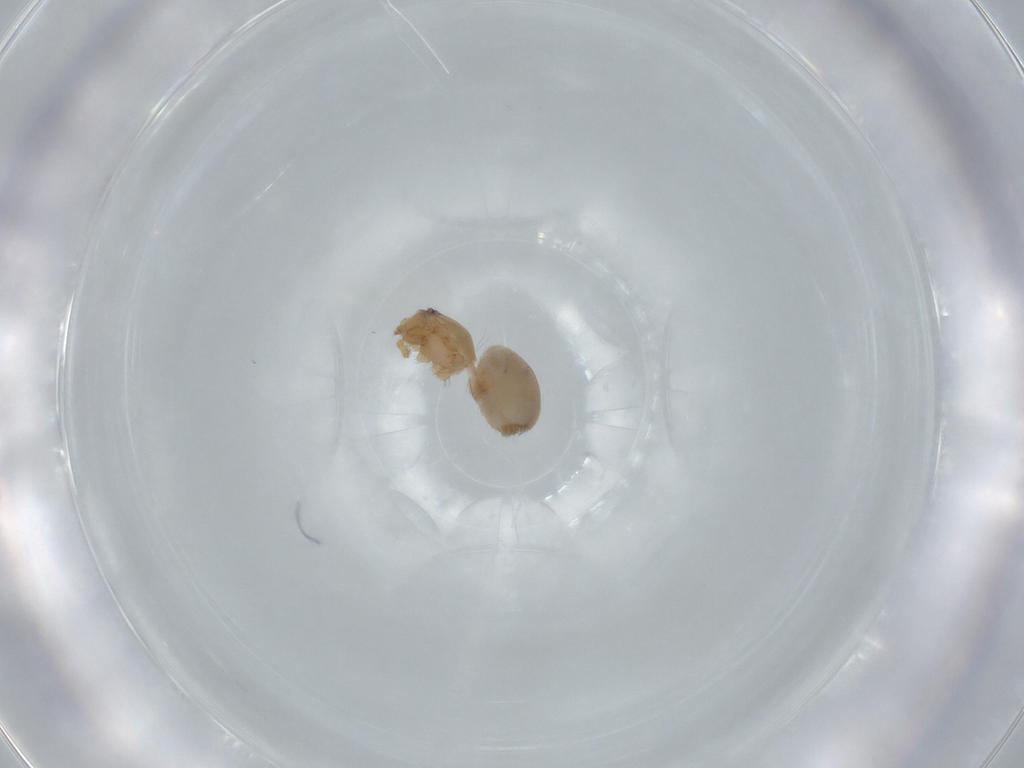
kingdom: Animalia
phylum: Arthropoda
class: Arachnida
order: Araneae
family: Oonopidae
